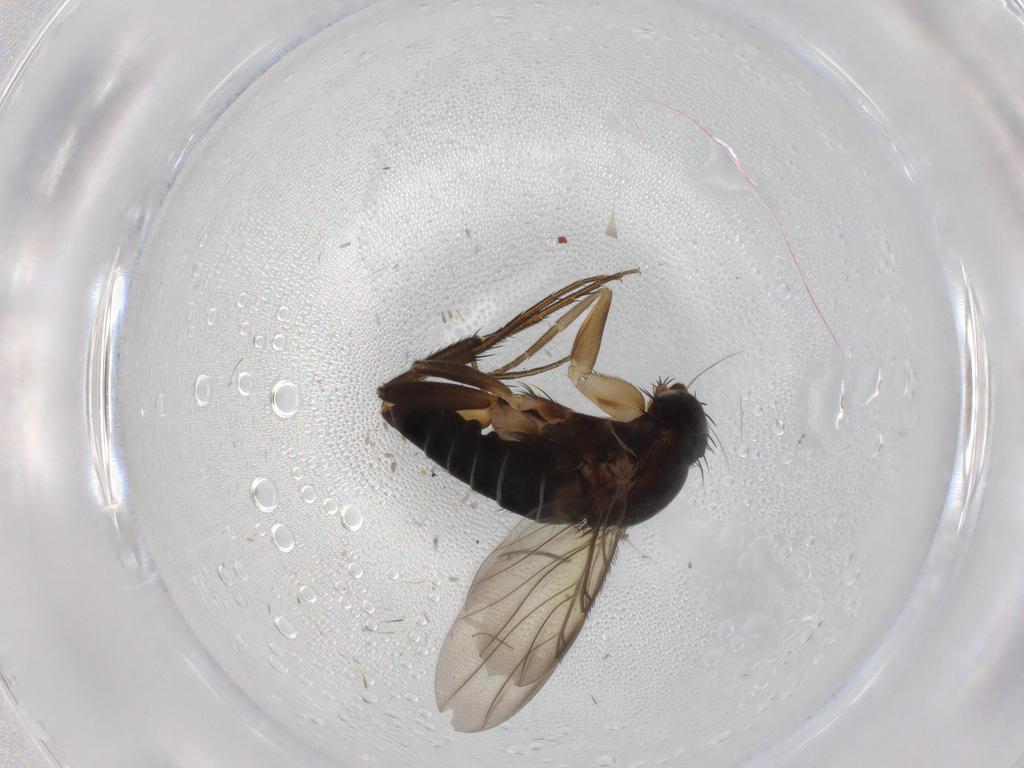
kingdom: Animalia
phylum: Arthropoda
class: Insecta
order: Diptera
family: Phoridae
